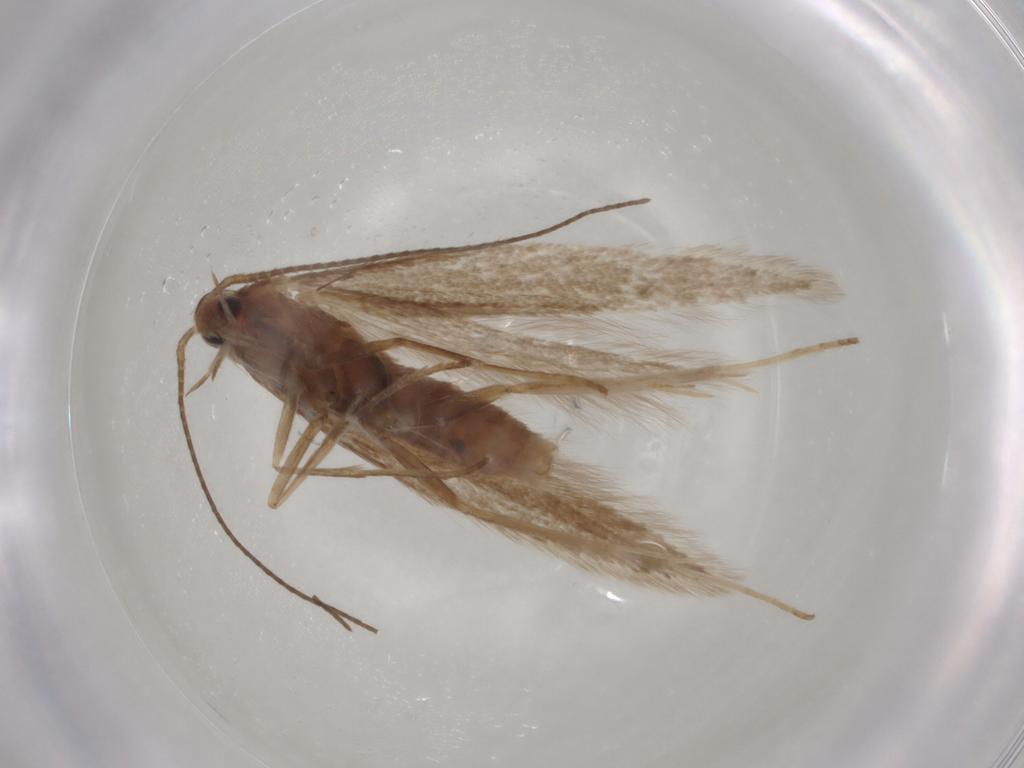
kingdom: Animalia
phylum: Arthropoda
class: Insecta
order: Lepidoptera
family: Coleophoridae
